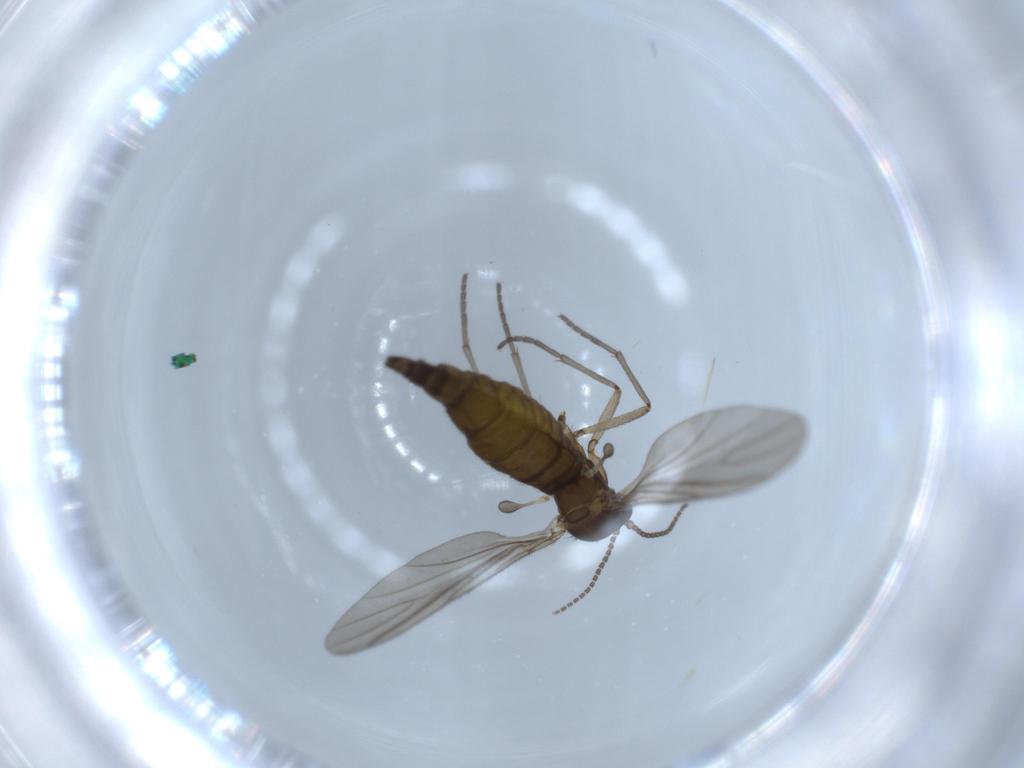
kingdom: Animalia
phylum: Arthropoda
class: Insecta
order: Diptera
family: Sciaridae
